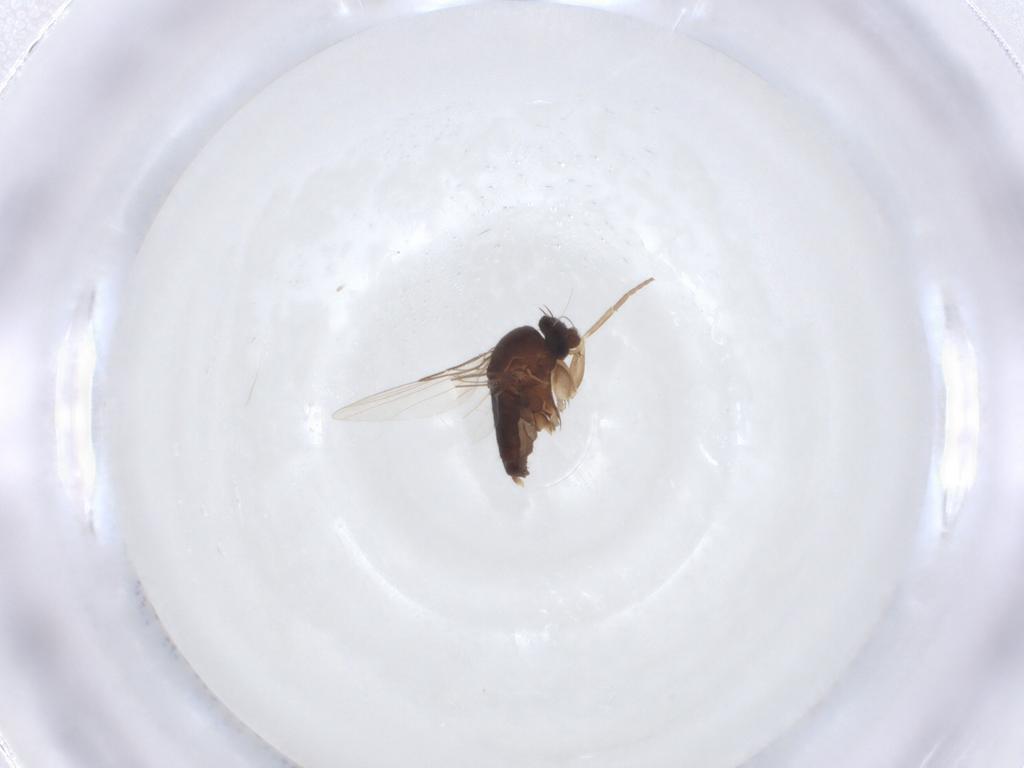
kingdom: Animalia
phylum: Arthropoda
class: Insecta
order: Diptera
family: Phoridae
